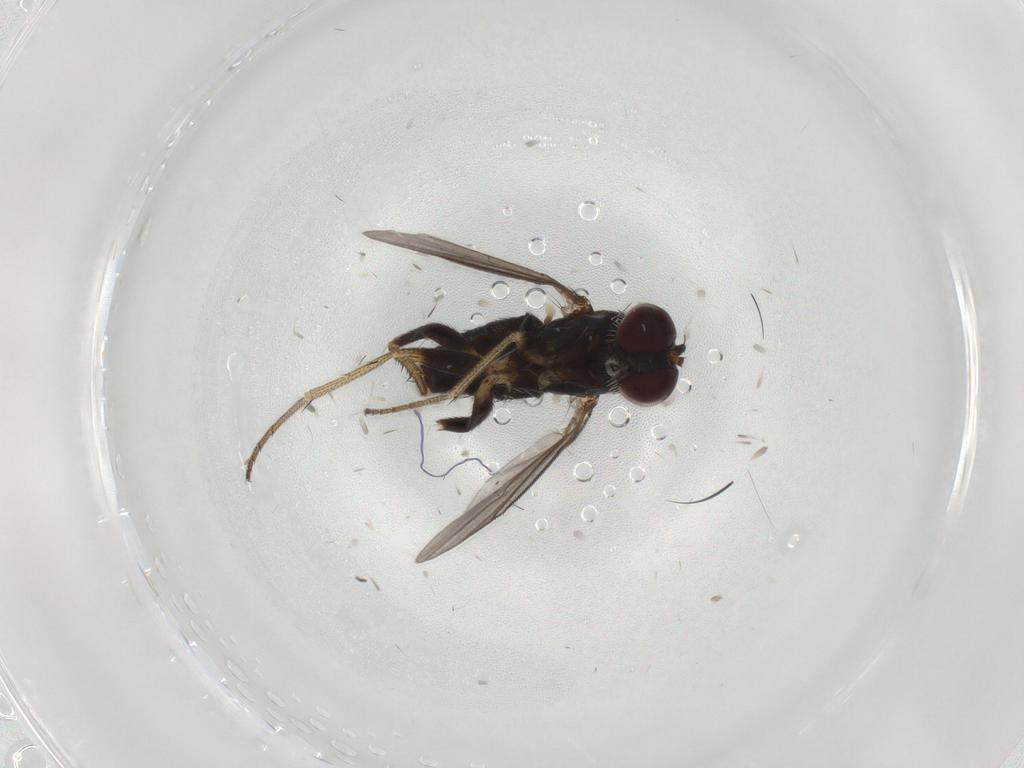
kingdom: Animalia
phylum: Arthropoda
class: Insecta
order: Diptera
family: Psychodidae
